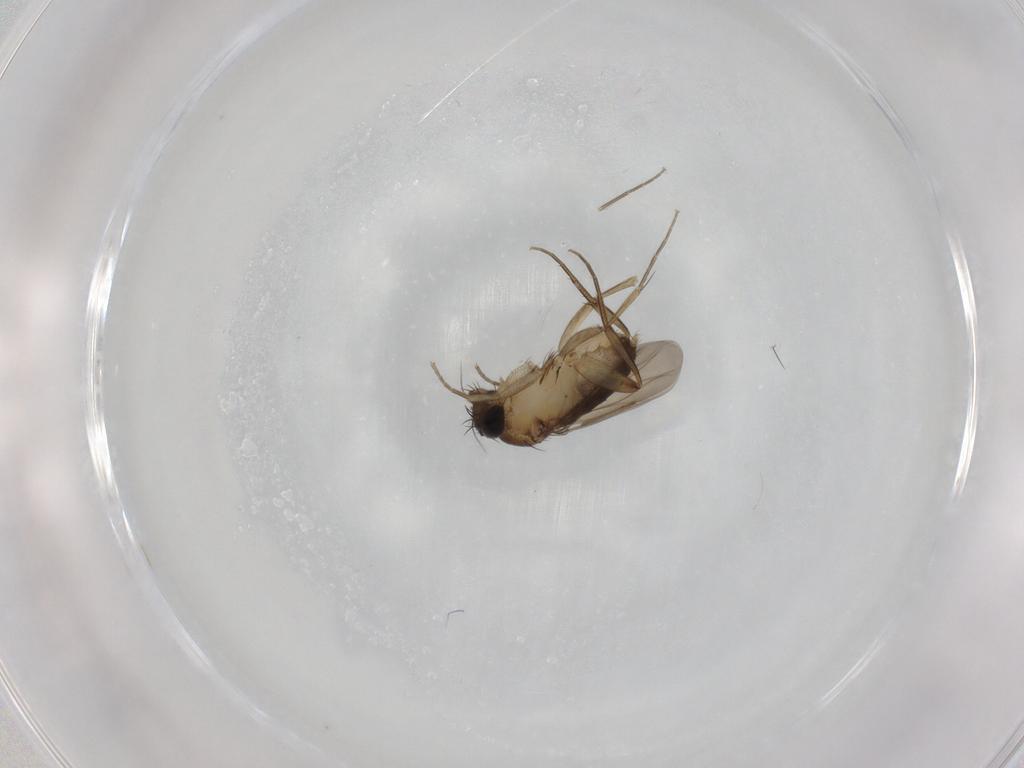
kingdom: Animalia
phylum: Arthropoda
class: Insecta
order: Diptera
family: Phoridae
